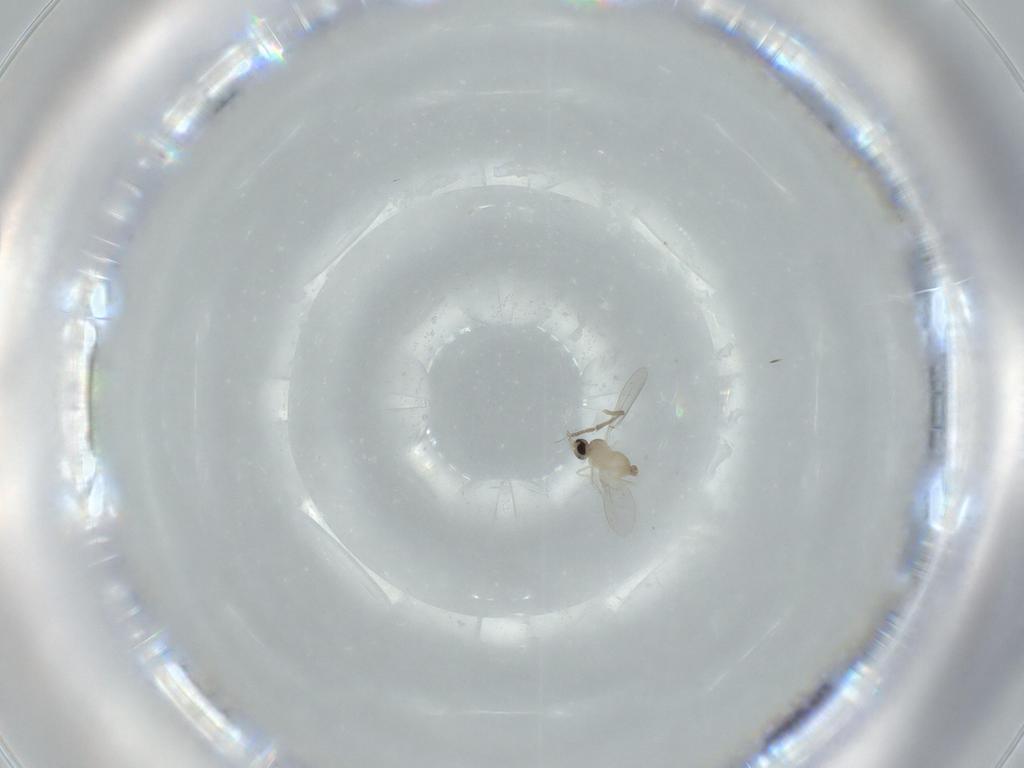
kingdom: Animalia
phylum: Arthropoda
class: Insecta
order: Diptera
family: Cecidomyiidae
